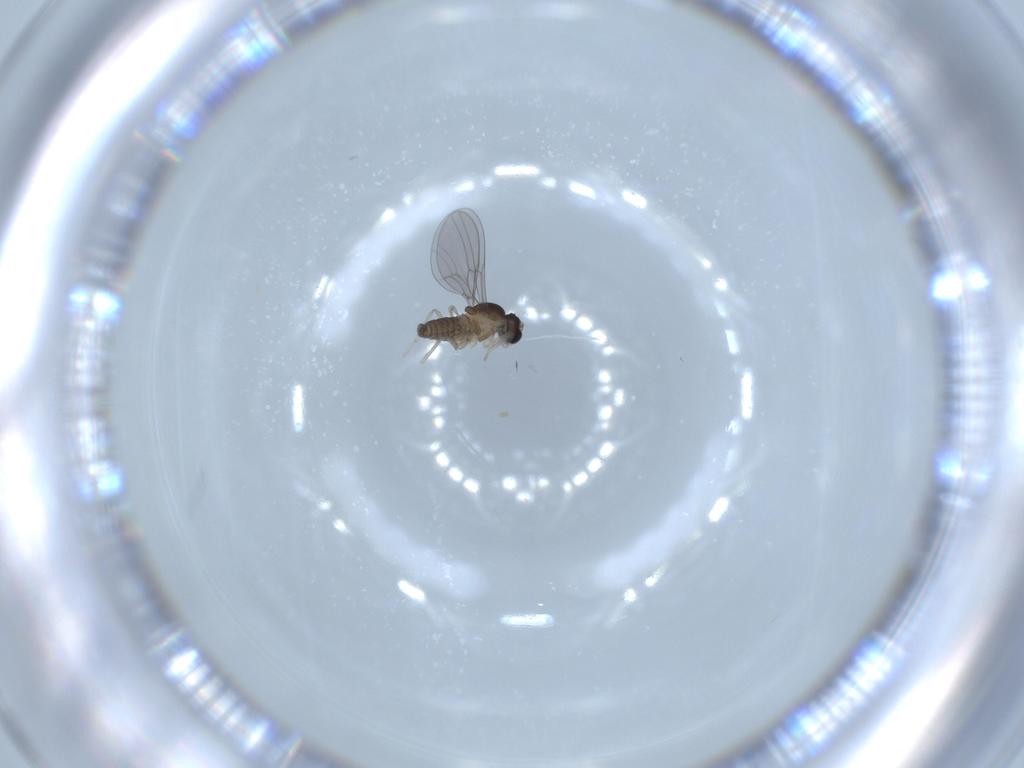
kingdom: Animalia
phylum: Arthropoda
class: Insecta
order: Diptera
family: Cecidomyiidae
